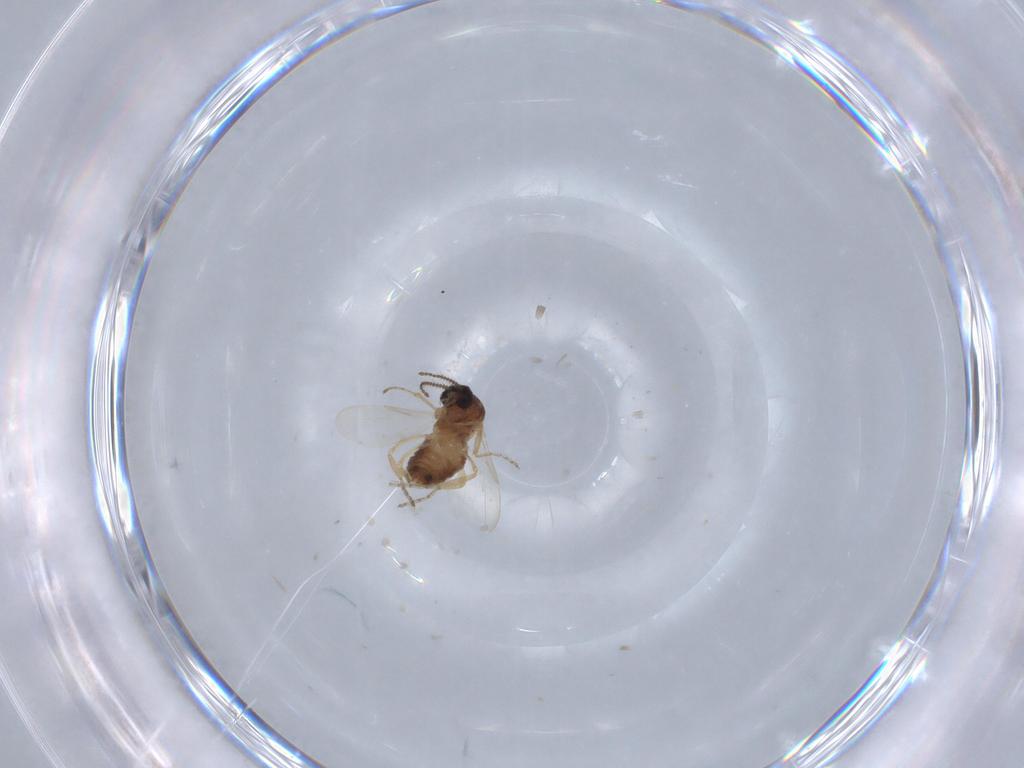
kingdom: Animalia
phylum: Arthropoda
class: Insecta
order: Diptera
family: Ceratopogonidae
